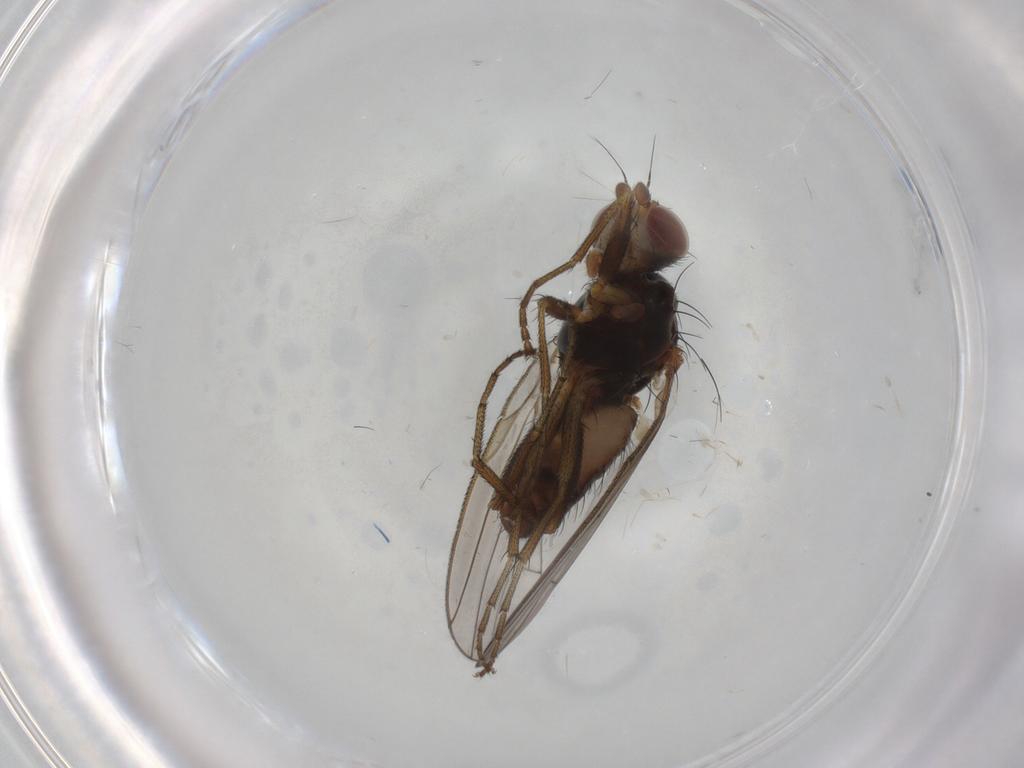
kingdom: Animalia
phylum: Arthropoda
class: Insecta
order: Diptera
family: Heleomyzidae
